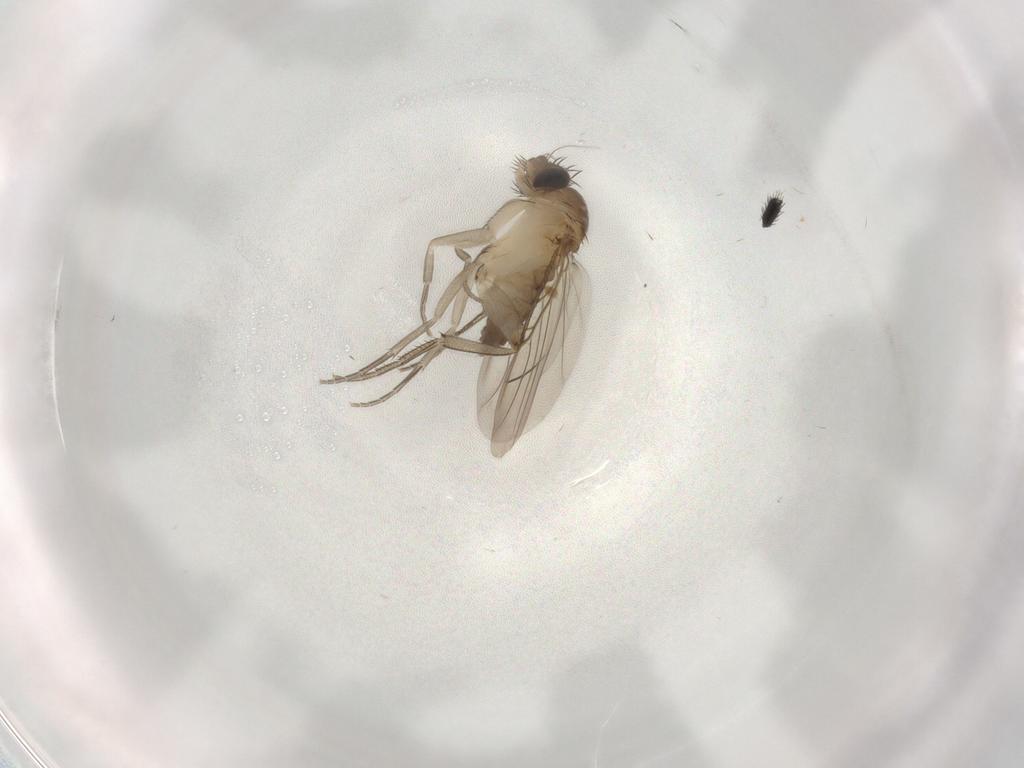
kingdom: Animalia
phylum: Arthropoda
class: Insecta
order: Diptera
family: Phoridae
